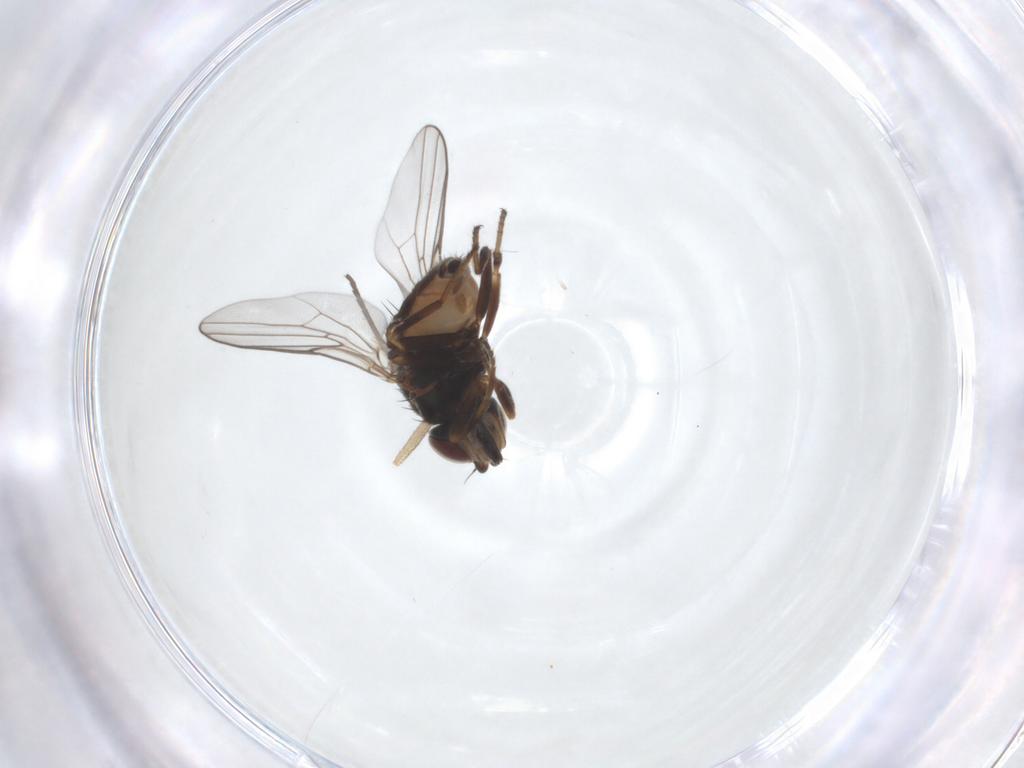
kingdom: Animalia
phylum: Arthropoda
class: Insecta
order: Diptera
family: Chloropidae
